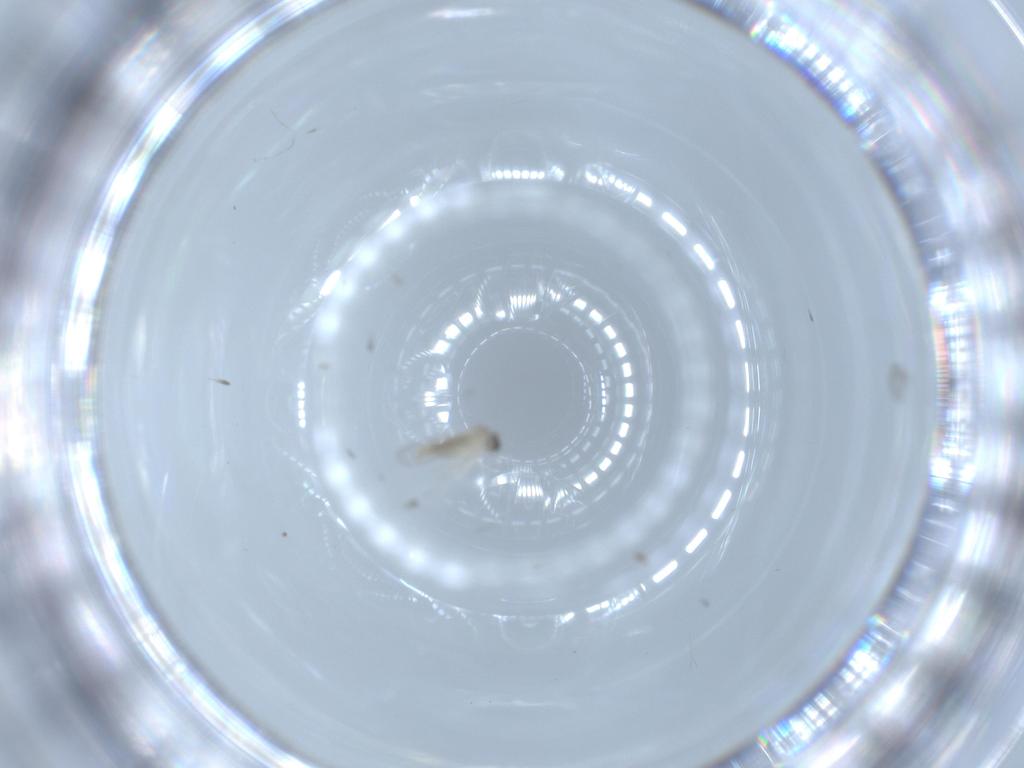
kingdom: Animalia
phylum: Arthropoda
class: Insecta
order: Diptera
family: Cecidomyiidae
